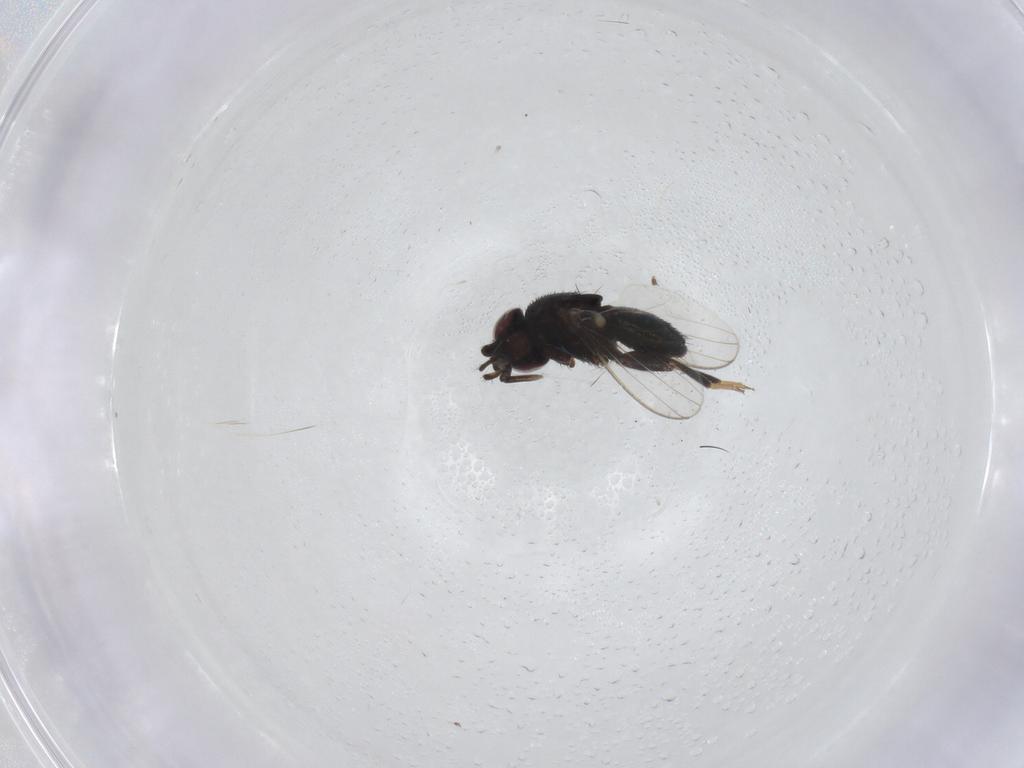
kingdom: Animalia
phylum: Arthropoda
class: Insecta
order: Diptera
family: Milichiidae
